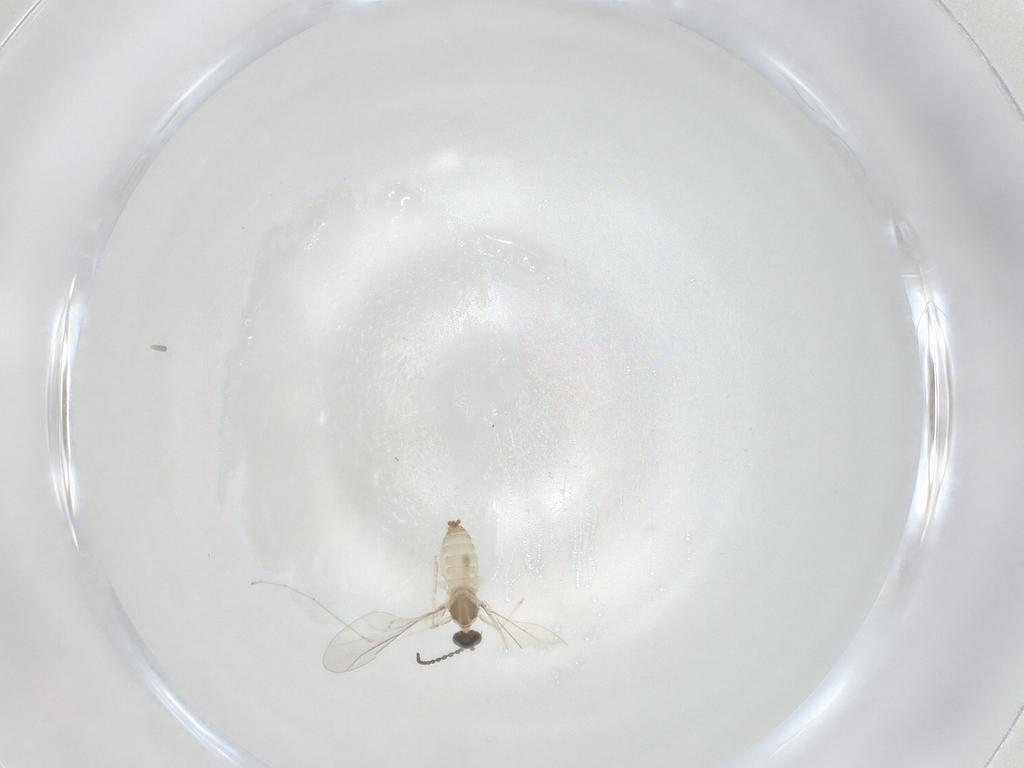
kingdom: Animalia
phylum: Arthropoda
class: Insecta
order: Diptera
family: Cecidomyiidae
